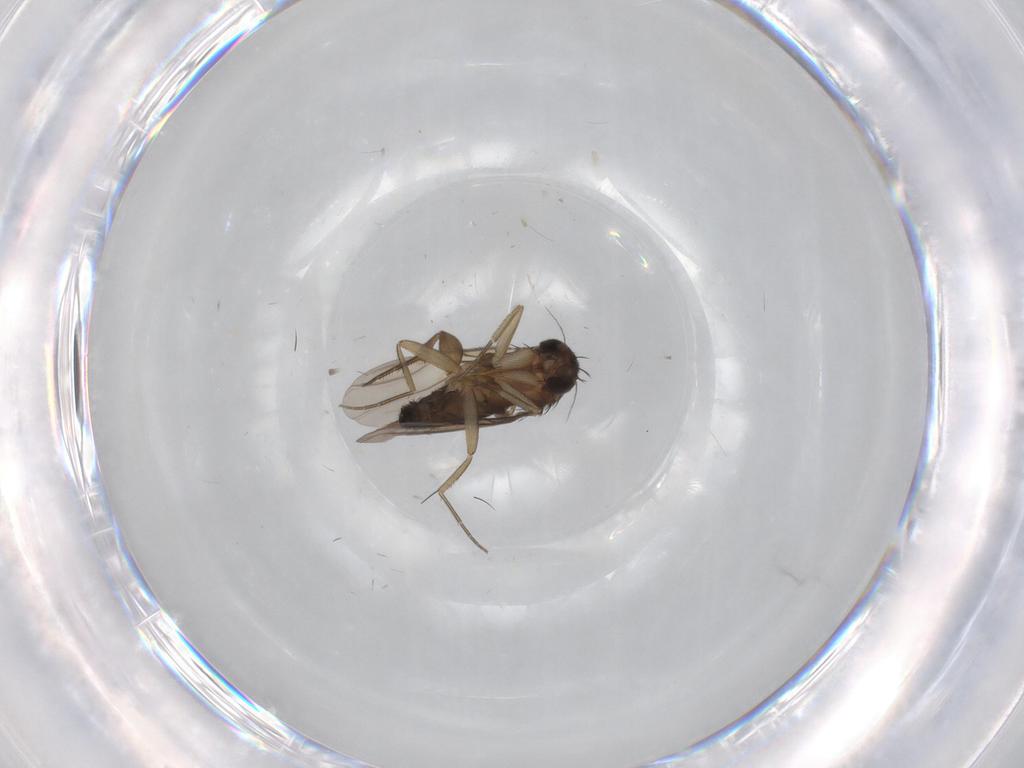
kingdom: Animalia
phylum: Arthropoda
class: Insecta
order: Diptera
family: Phoridae
